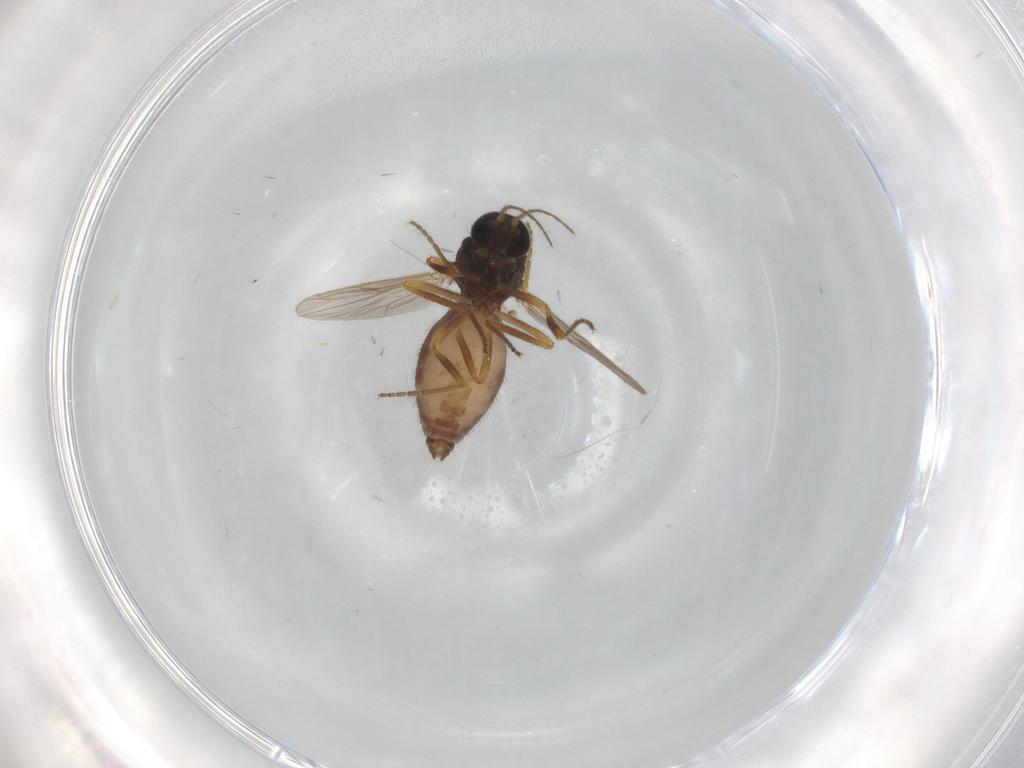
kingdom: Animalia
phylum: Arthropoda
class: Insecta
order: Diptera
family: Ceratopogonidae
